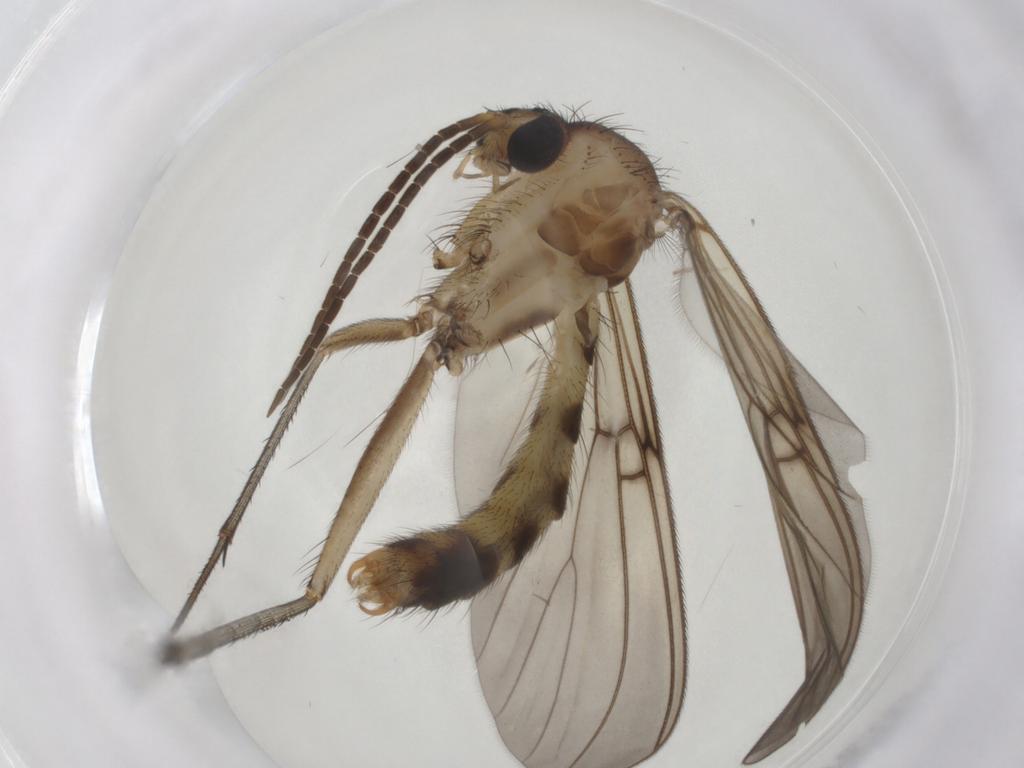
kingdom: Animalia
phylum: Arthropoda
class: Insecta
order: Diptera
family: Mycetophilidae
